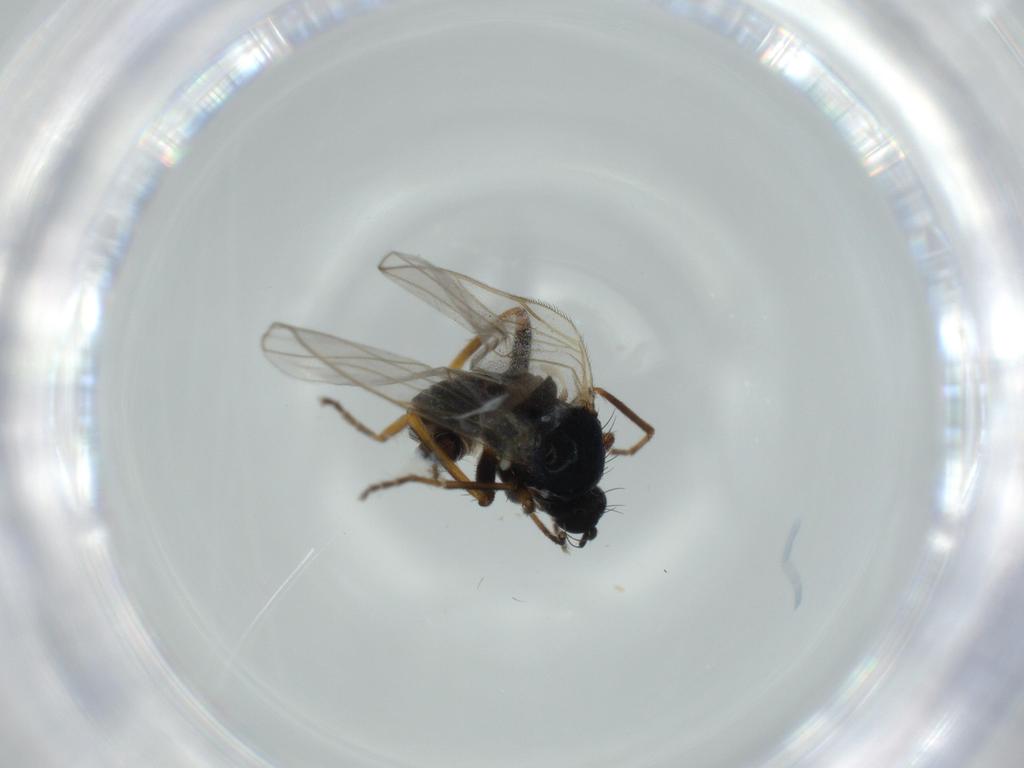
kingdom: Animalia
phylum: Arthropoda
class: Insecta
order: Diptera
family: Hybotidae
